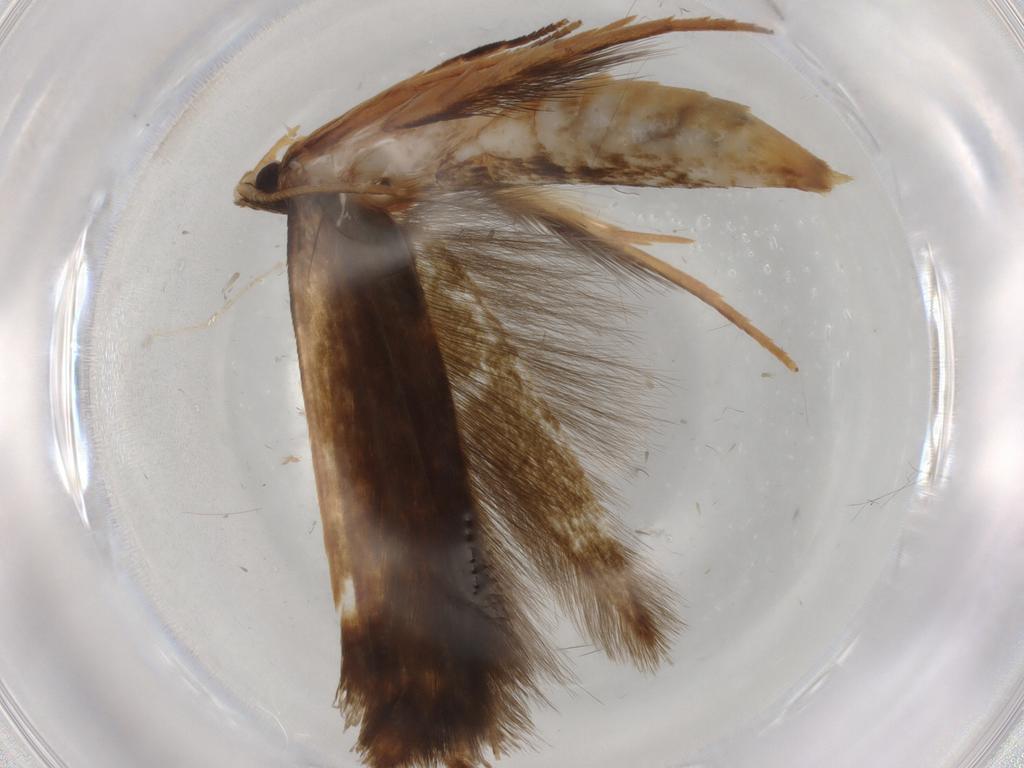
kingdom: Animalia
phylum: Arthropoda
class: Insecta
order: Lepidoptera
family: Tineidae
